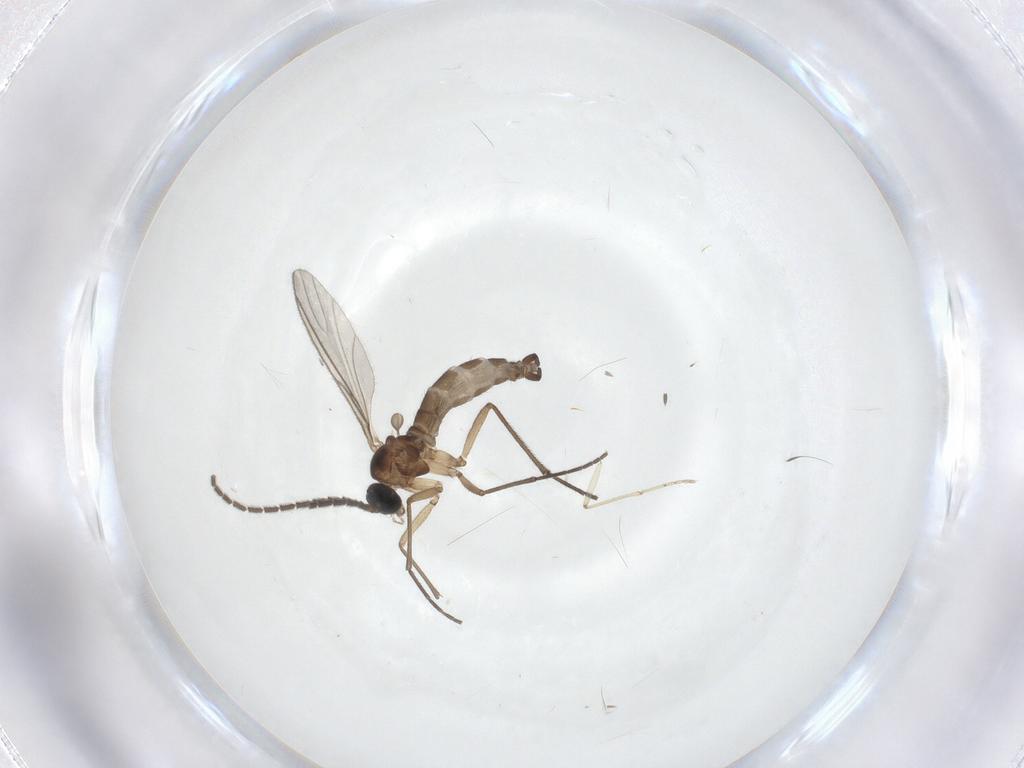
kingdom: Animalia
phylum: Arthropoda
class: Insecta
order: Diptera
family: Sciaridae
